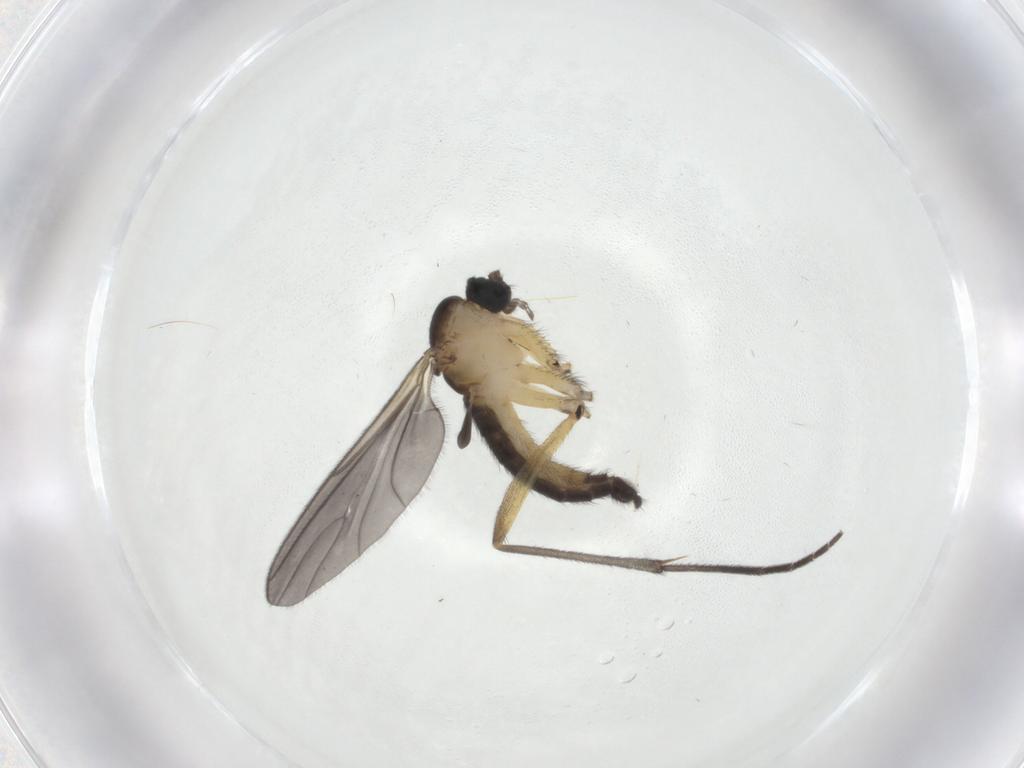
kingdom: Animalia
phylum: Arthropoda
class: Insecta
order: Diptera
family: Sciaridae
